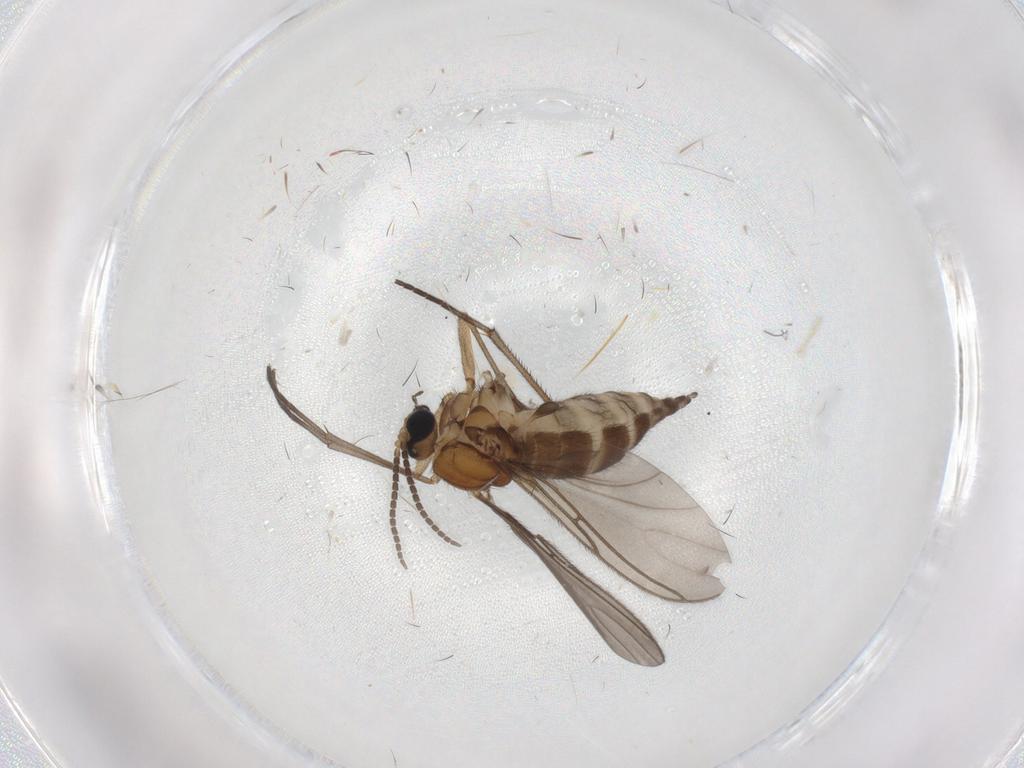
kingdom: Animalia
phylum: Arthropoda
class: Insecta
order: Diptera
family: Sciaridae
